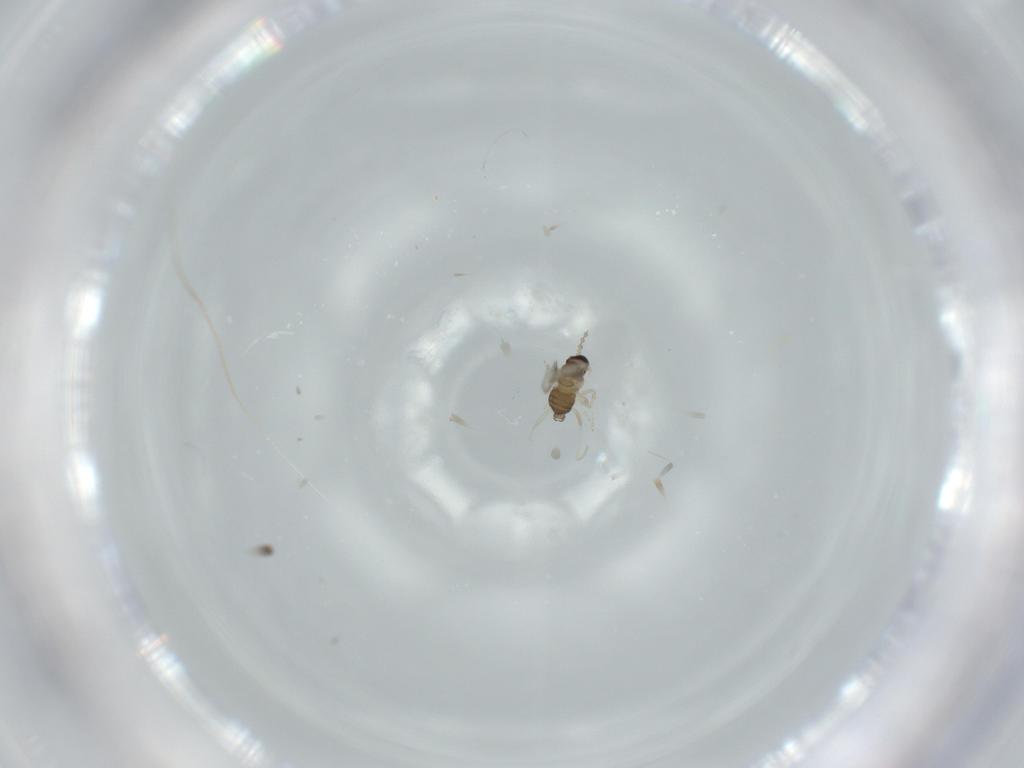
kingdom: Animalia
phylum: Arthropoda
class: Insecta
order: Diptera
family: Cecidomyiidae
